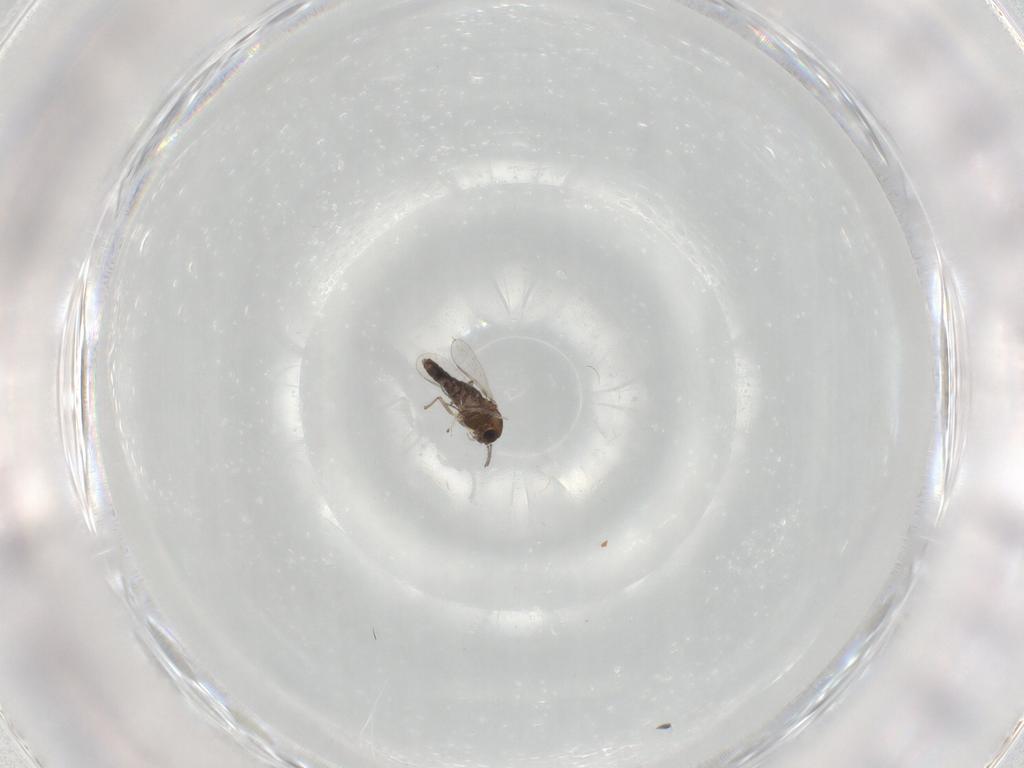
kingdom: Animalia
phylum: Arthropoda
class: Insecta
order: Diptera
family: Chironomidae
